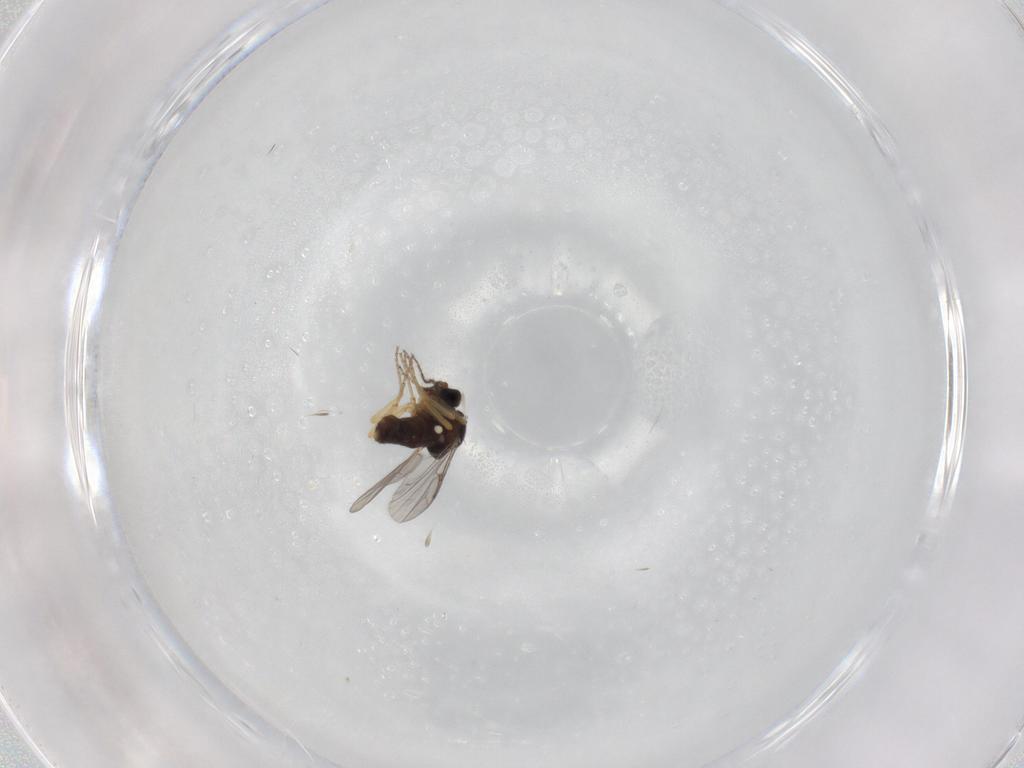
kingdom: Animalia
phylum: Arthropoda
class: Insecta
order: Diptera
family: Ceratopogonidae
